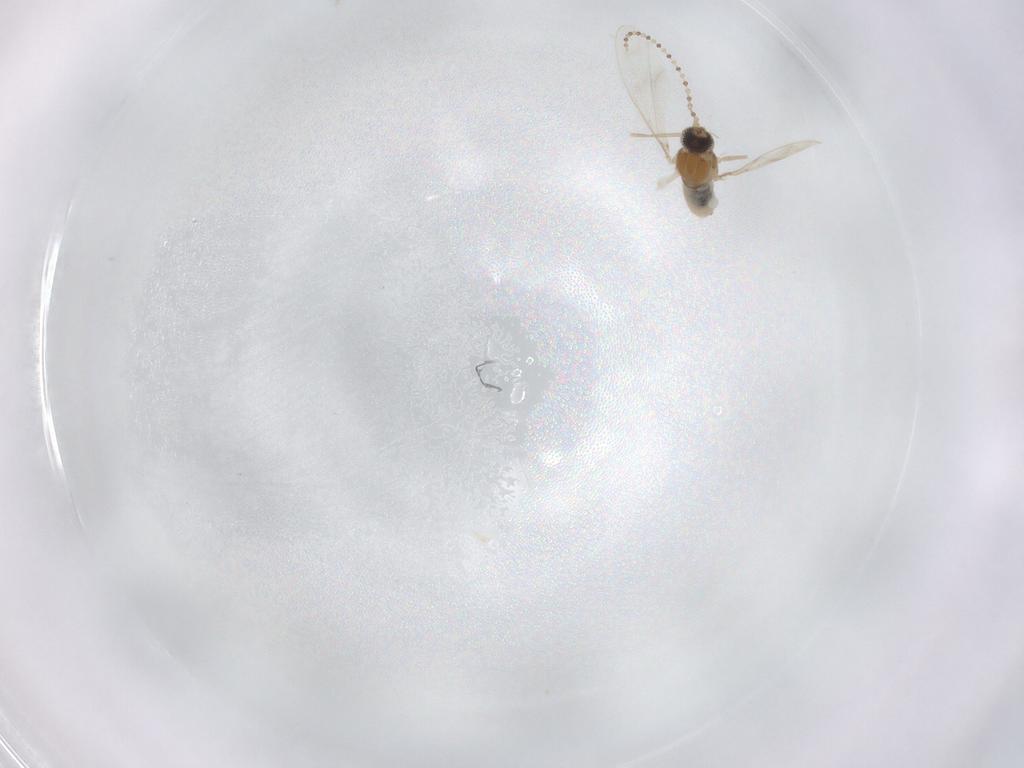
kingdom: Animalia
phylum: Arthropoda
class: Insecta
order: Diptera
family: Cecidomyiidae
